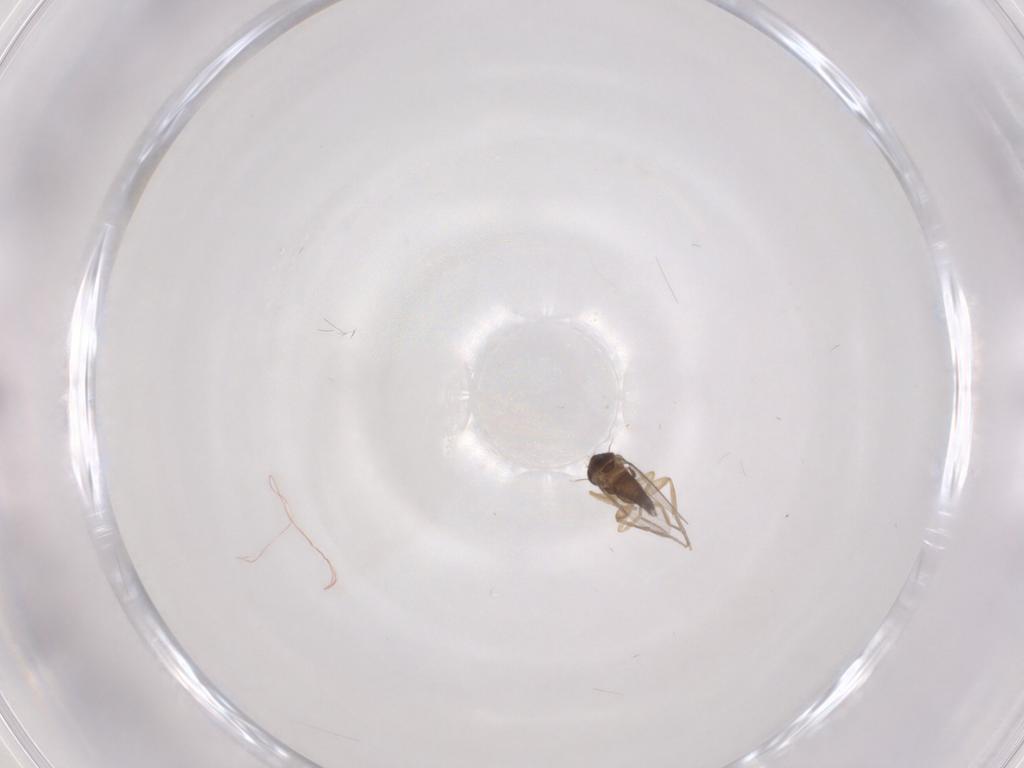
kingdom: Animalia
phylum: Arthropoda
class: Insecta
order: Diptera
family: Phoridae
